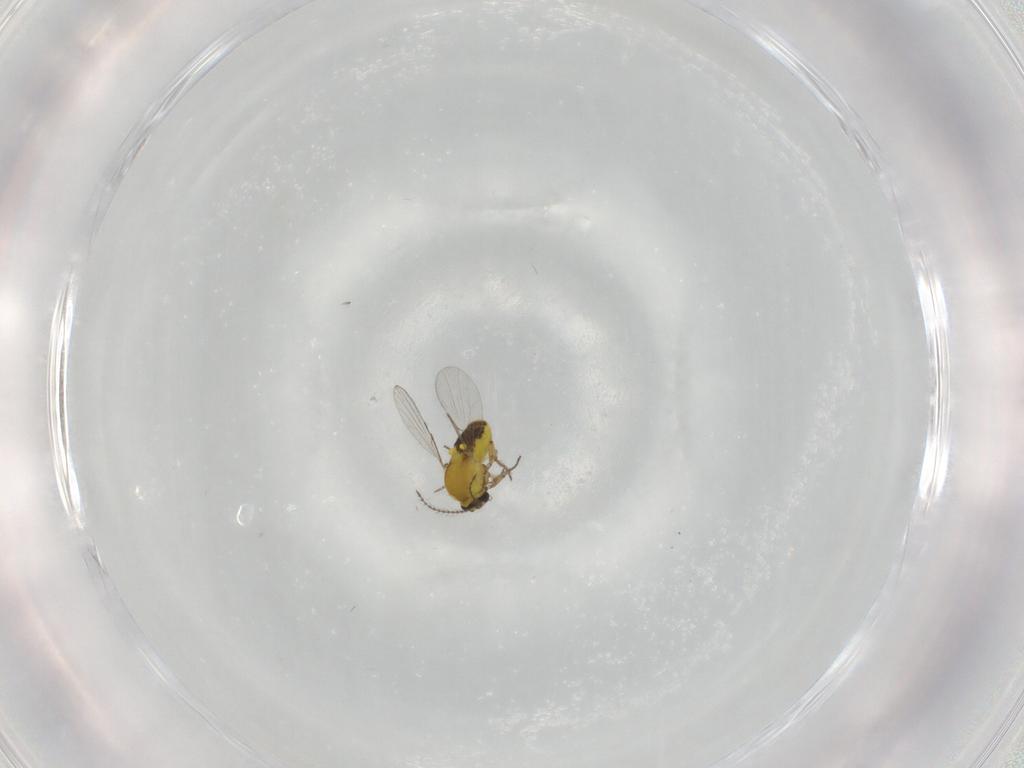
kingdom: Animalia
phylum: Arthropoda
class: Insecta
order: Diptera
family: Ceratopogonidae
